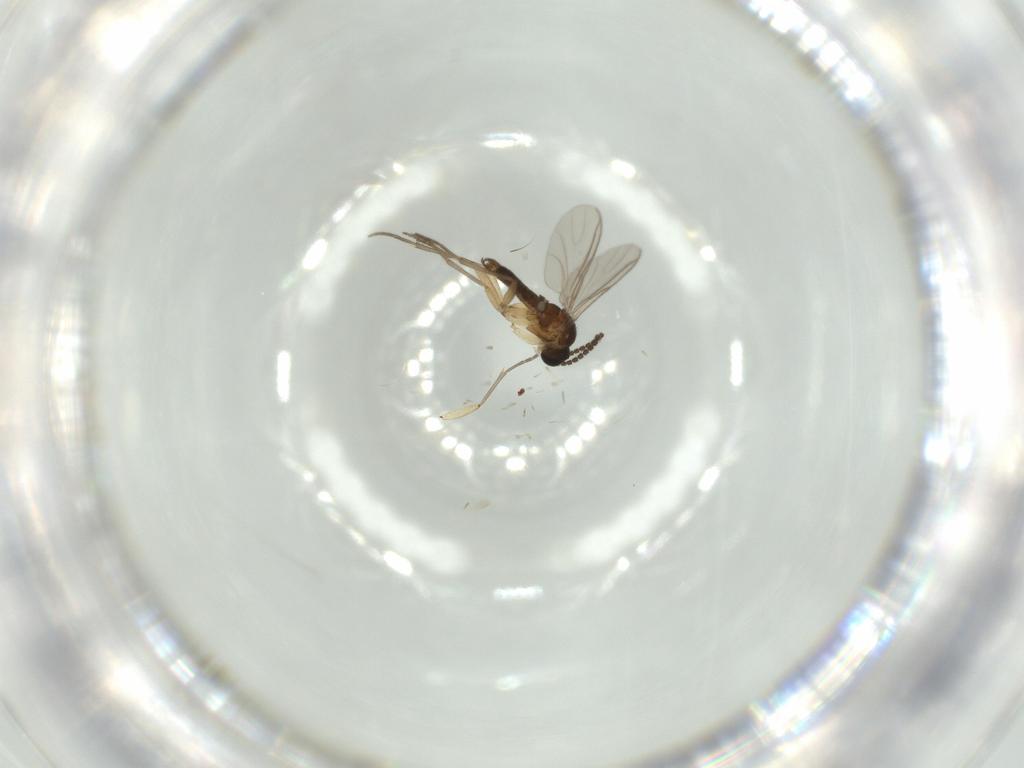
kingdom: Animalia
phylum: Arthropoda
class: Insecta
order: Diptera
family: Sciaridae
